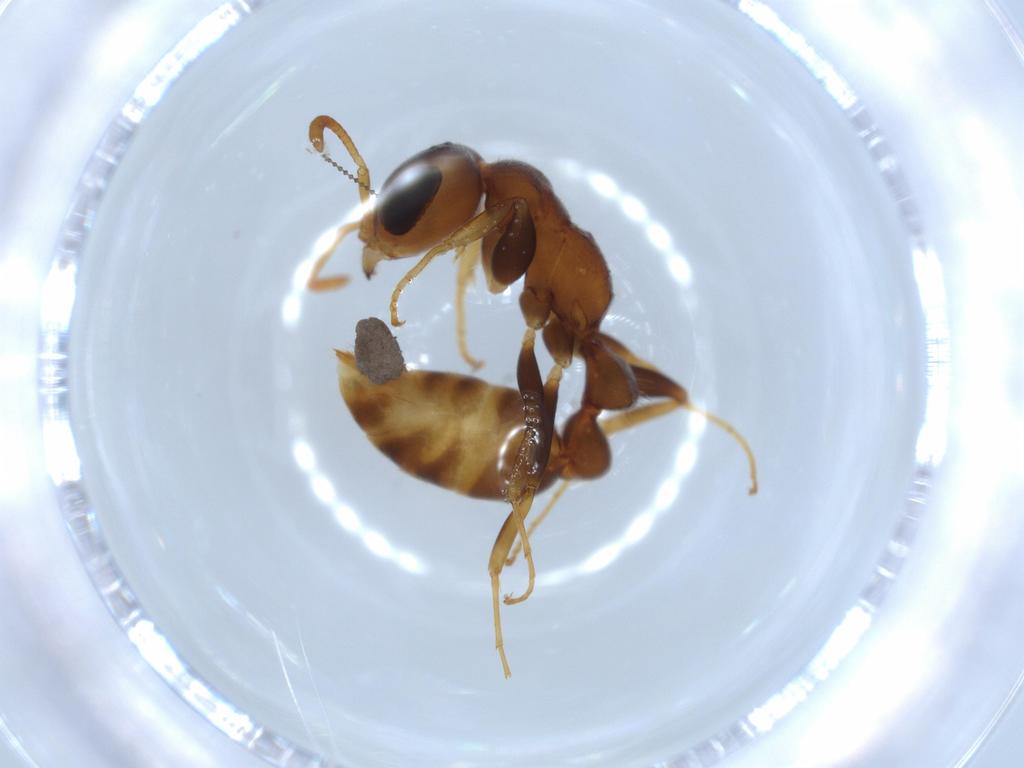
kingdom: Animalia
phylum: Arthropoda
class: Insecta
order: Hymenoptera
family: Formicidae
